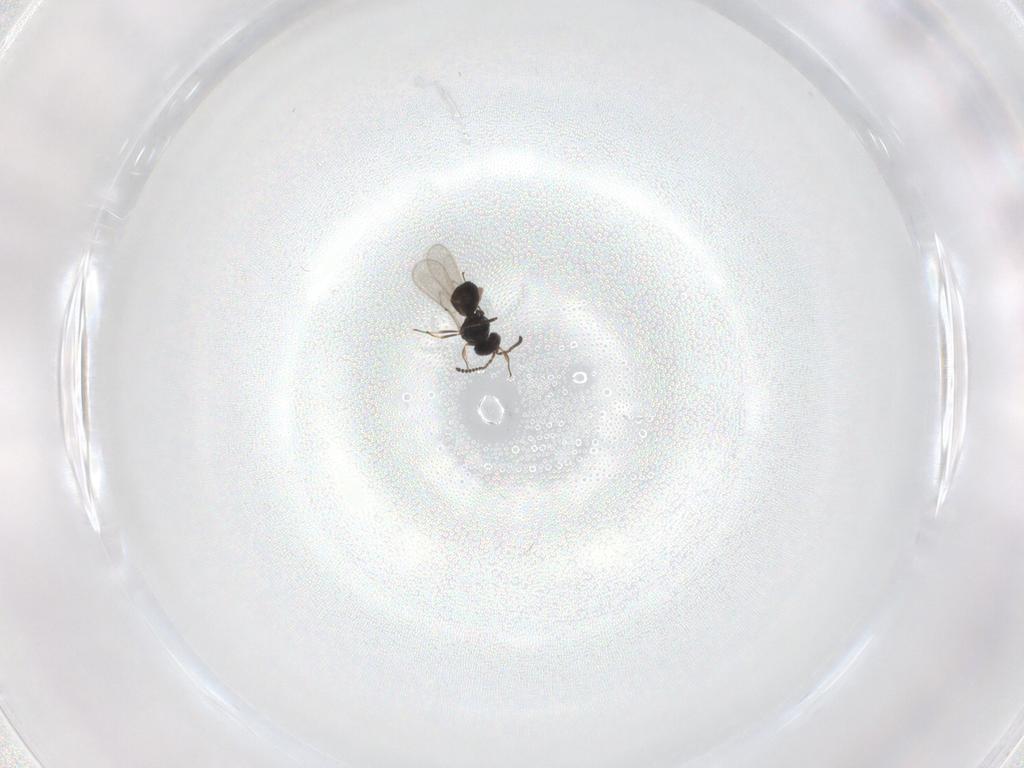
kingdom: Animalia
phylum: Arthropoda
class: Insecta
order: Hymenoptera
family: Scelionidae
